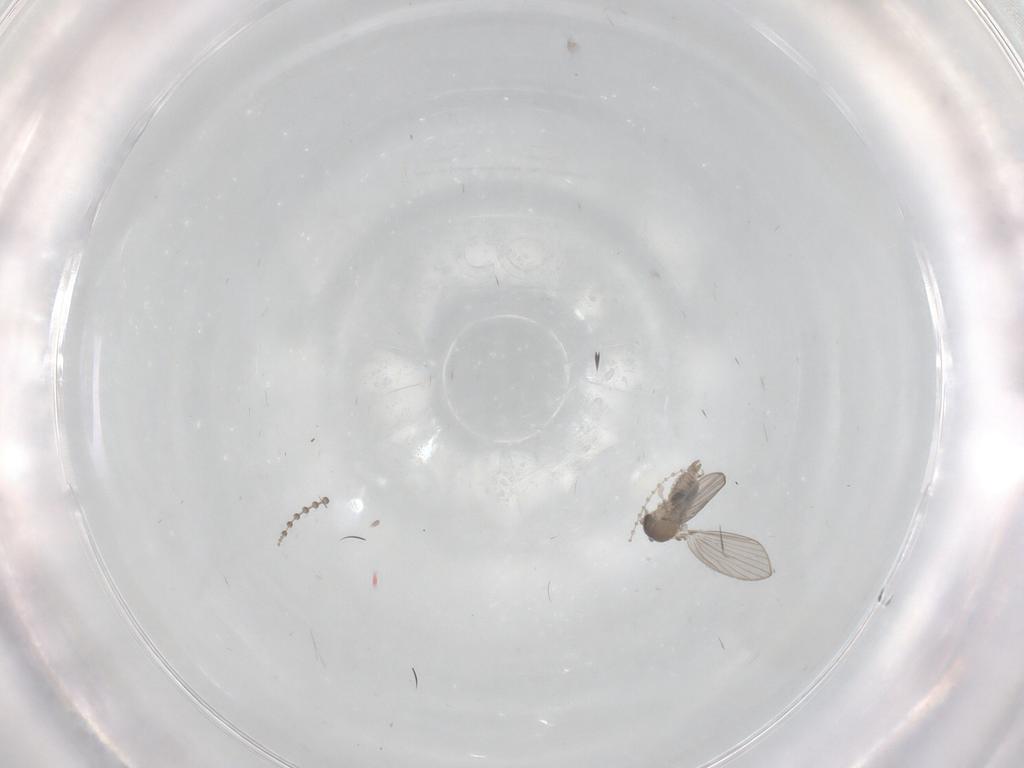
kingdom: Animalia
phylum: Arthropoda
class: Insecta
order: Diptera
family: Psychodidae
